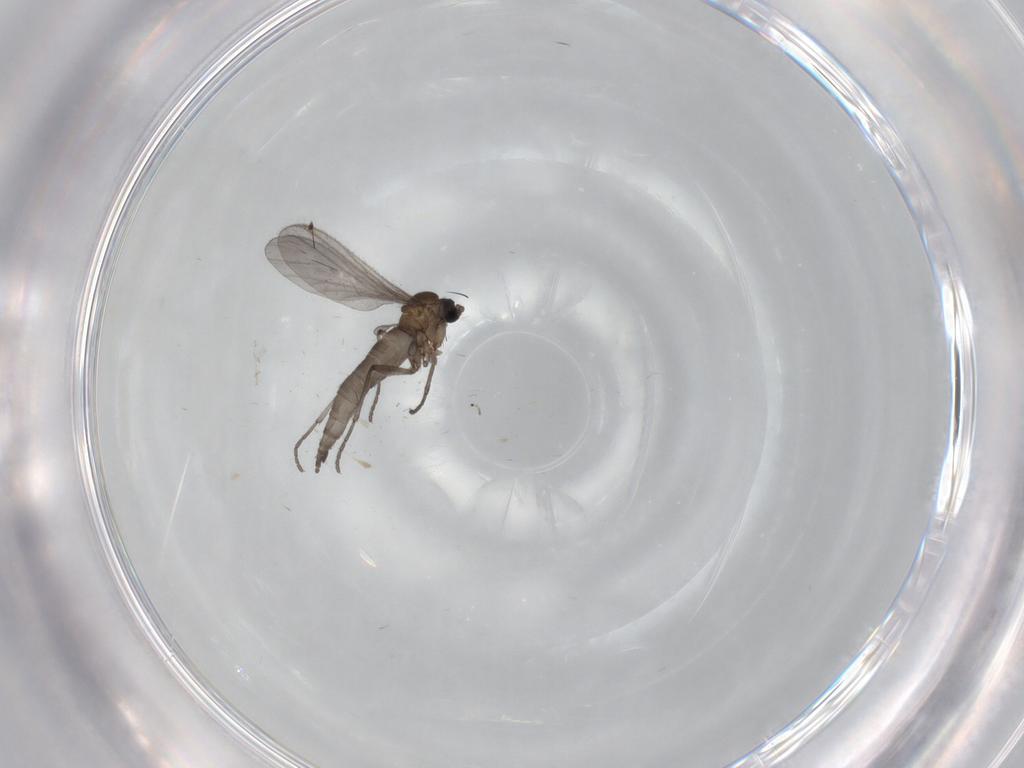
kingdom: Animalia
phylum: Arthropoda
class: Insecta
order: Diptera
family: Sciaridae
